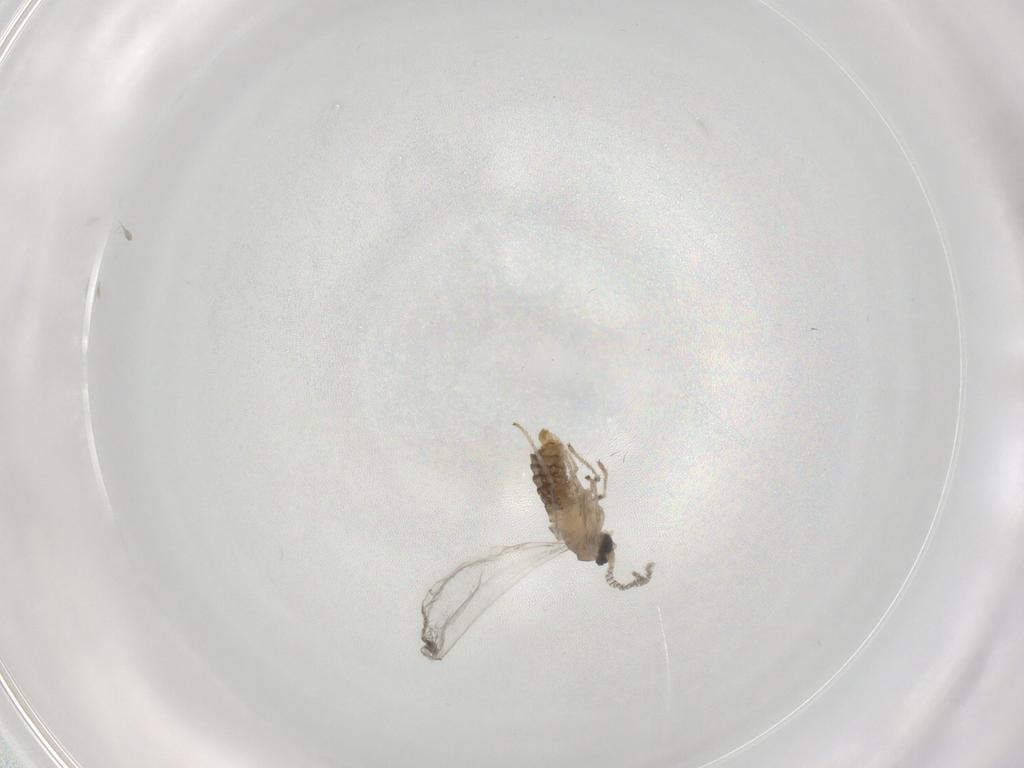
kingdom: Animalia
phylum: Arthropoda
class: Insecta
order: Diptera
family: Cecidomyiidae
